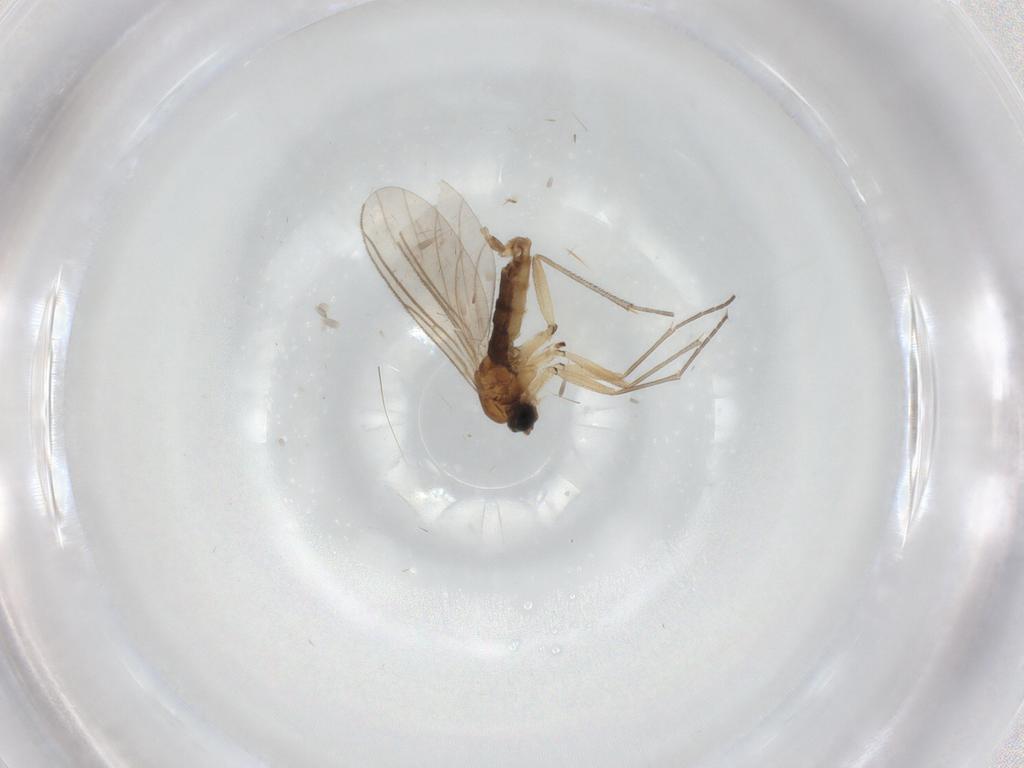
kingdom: Animalia
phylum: Arthropoda
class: Insecta
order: Diptera
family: Sciaridae
